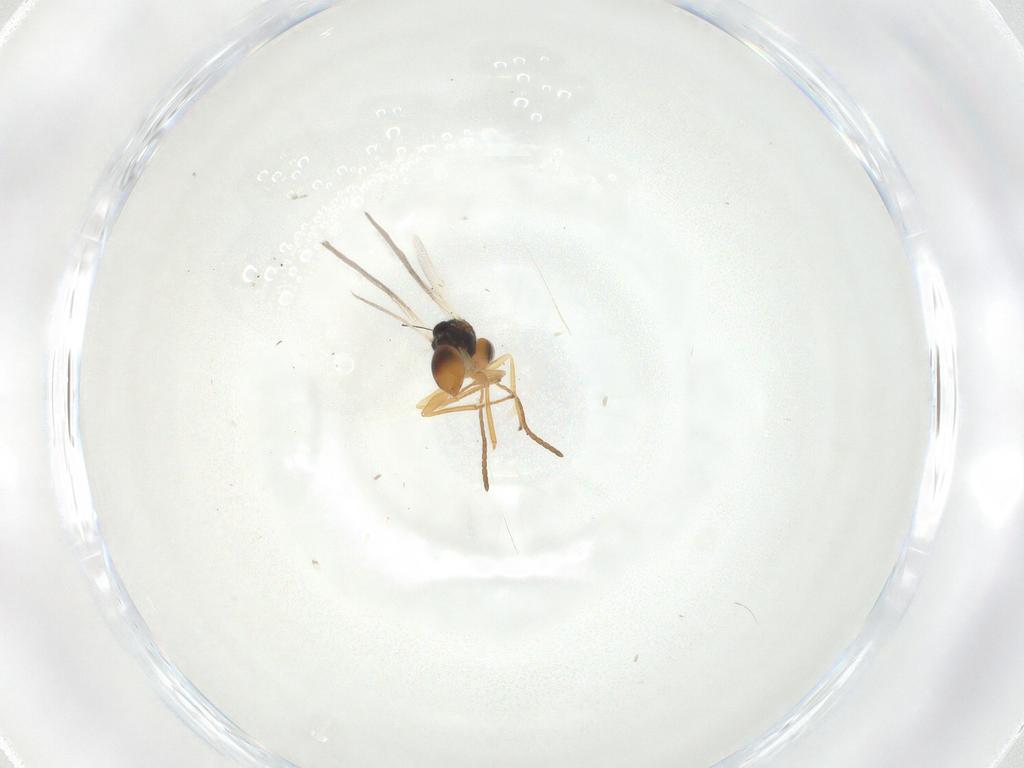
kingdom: Animalia
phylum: Arthropoda
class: Insecta
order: Hymenoptera
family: Cynipidae
